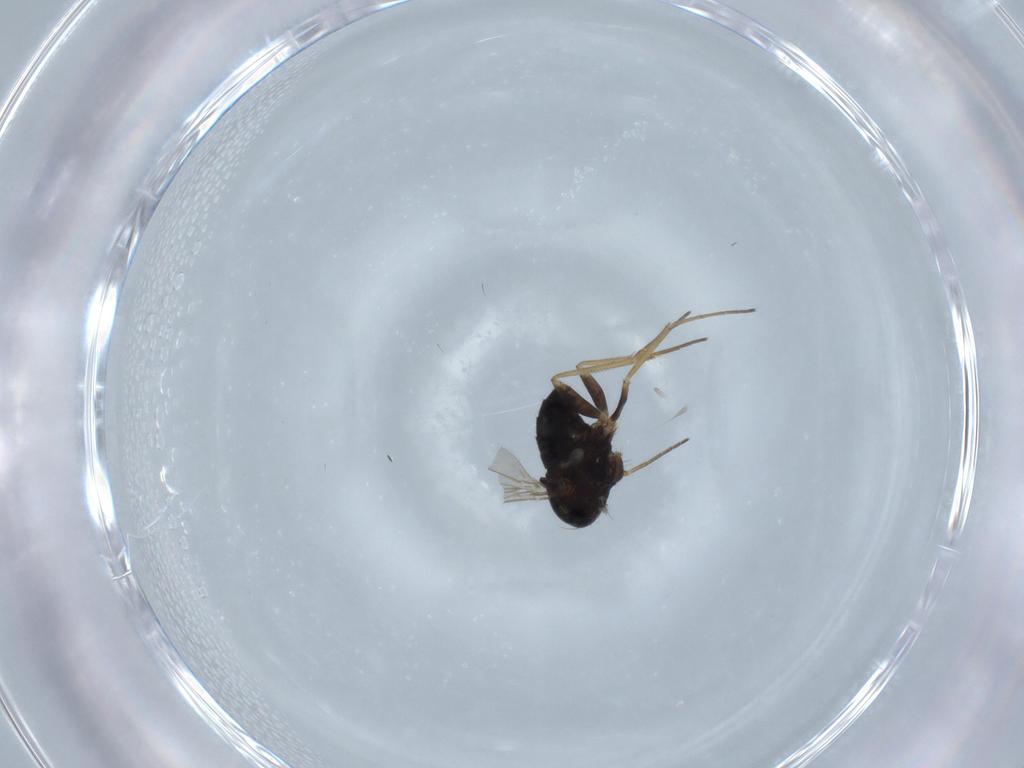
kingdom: Animalia
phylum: Arthropoda
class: Insecta
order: Diptera
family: Dolichopodidae
